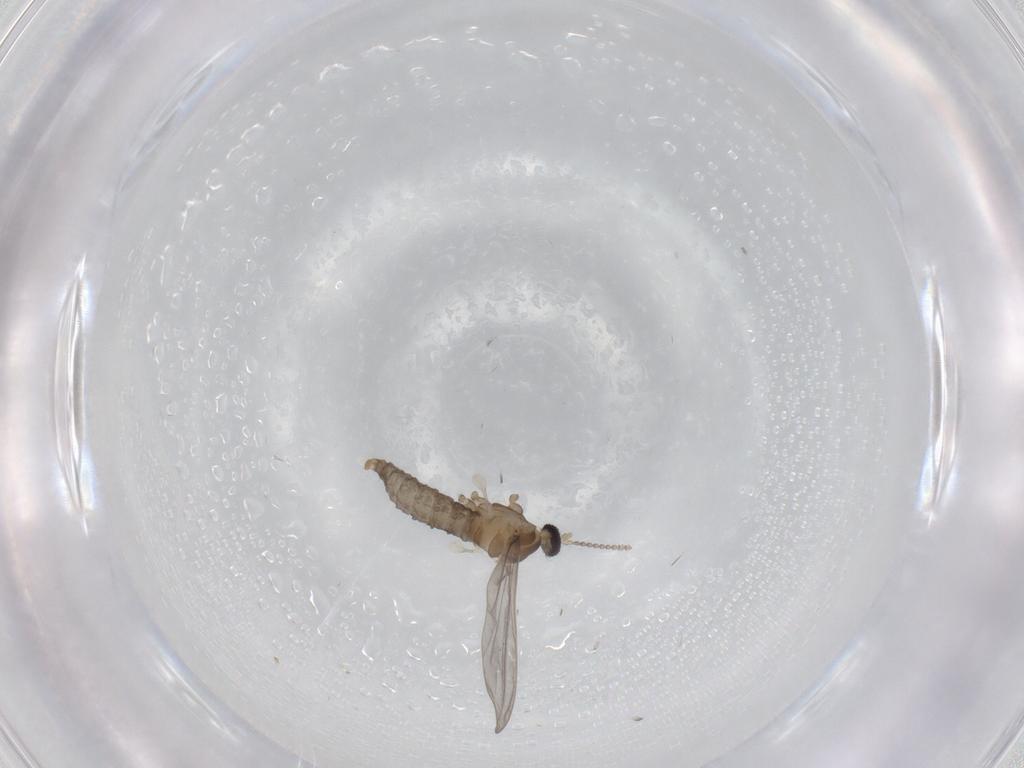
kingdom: Animalia
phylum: Arthropoda
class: Insecta
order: Diptera
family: Cecidomyiidae
